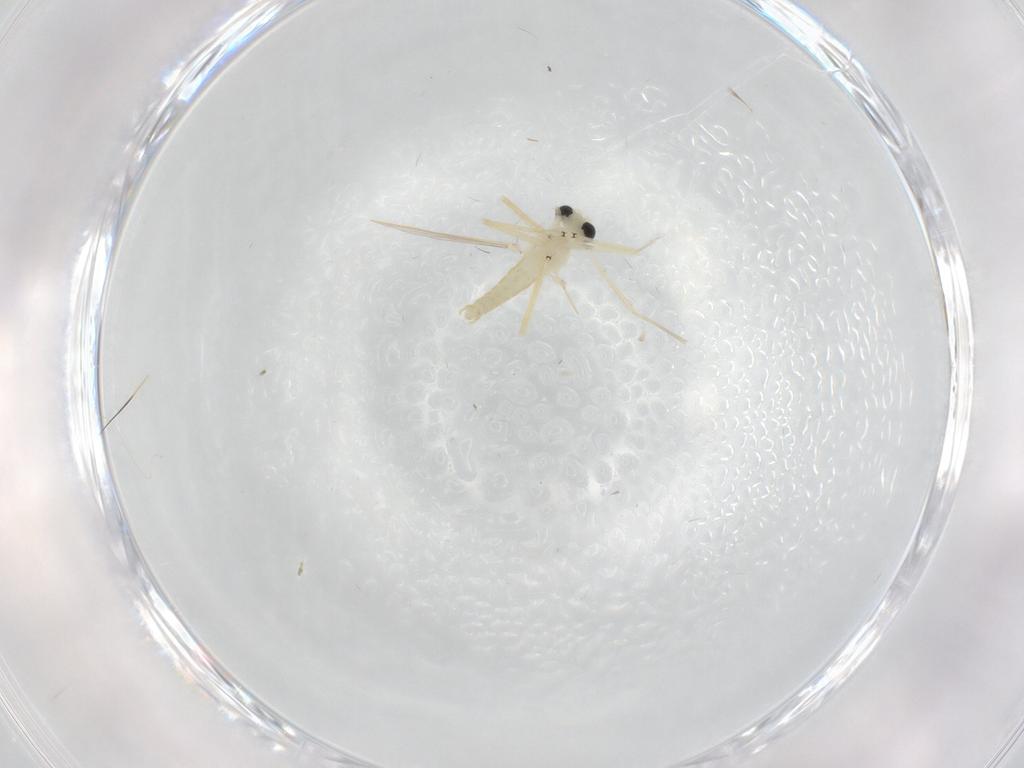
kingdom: Animalia
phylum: Arthropoda
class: Insecta
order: Diptera
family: Chironomidae
